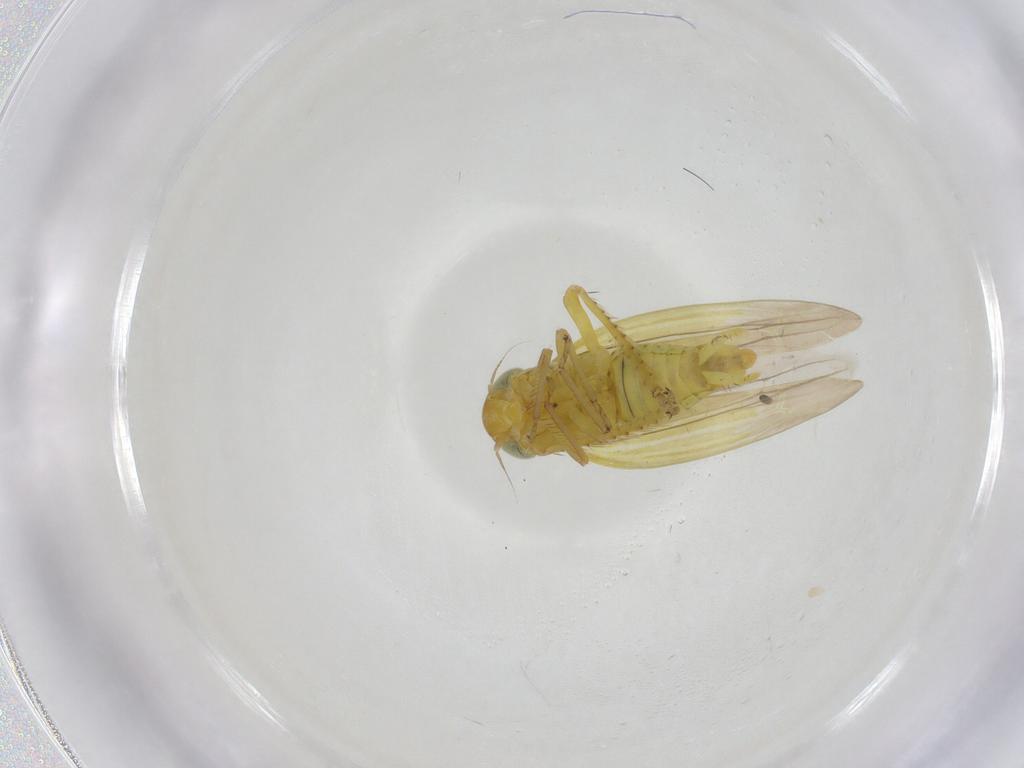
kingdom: Animalia
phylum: Arthropoda
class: Insecta
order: Hemiptera
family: Cicadellidae
